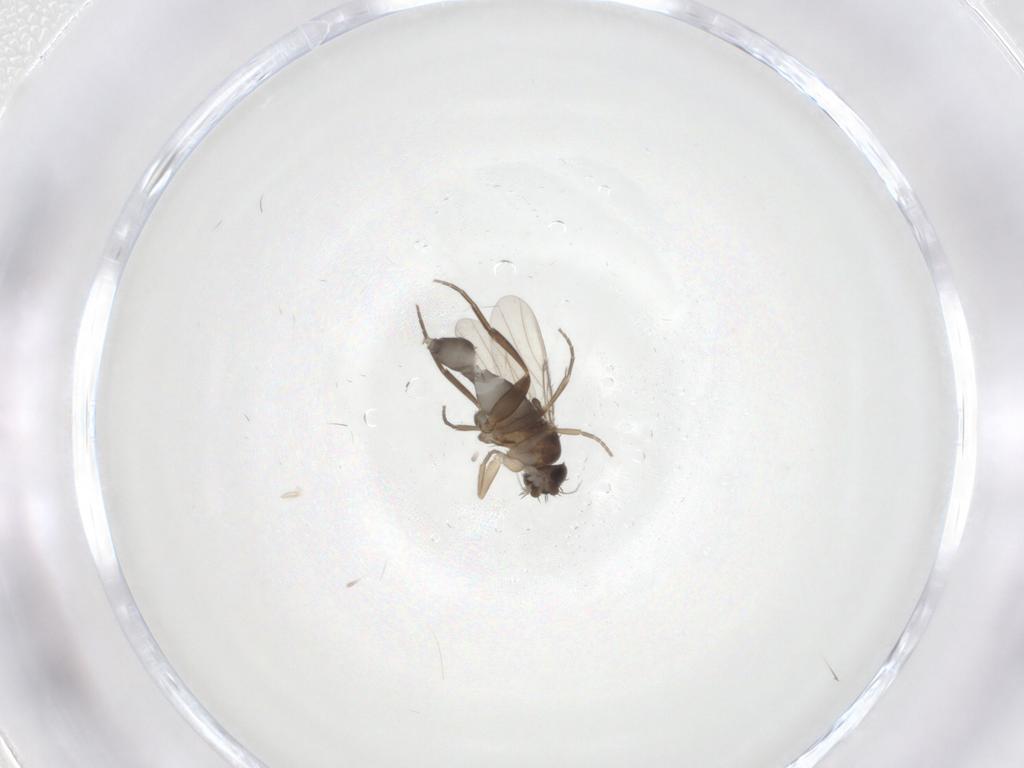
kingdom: Animalia
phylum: Arthropoda
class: Insecta
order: Diptera
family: Phoridae
